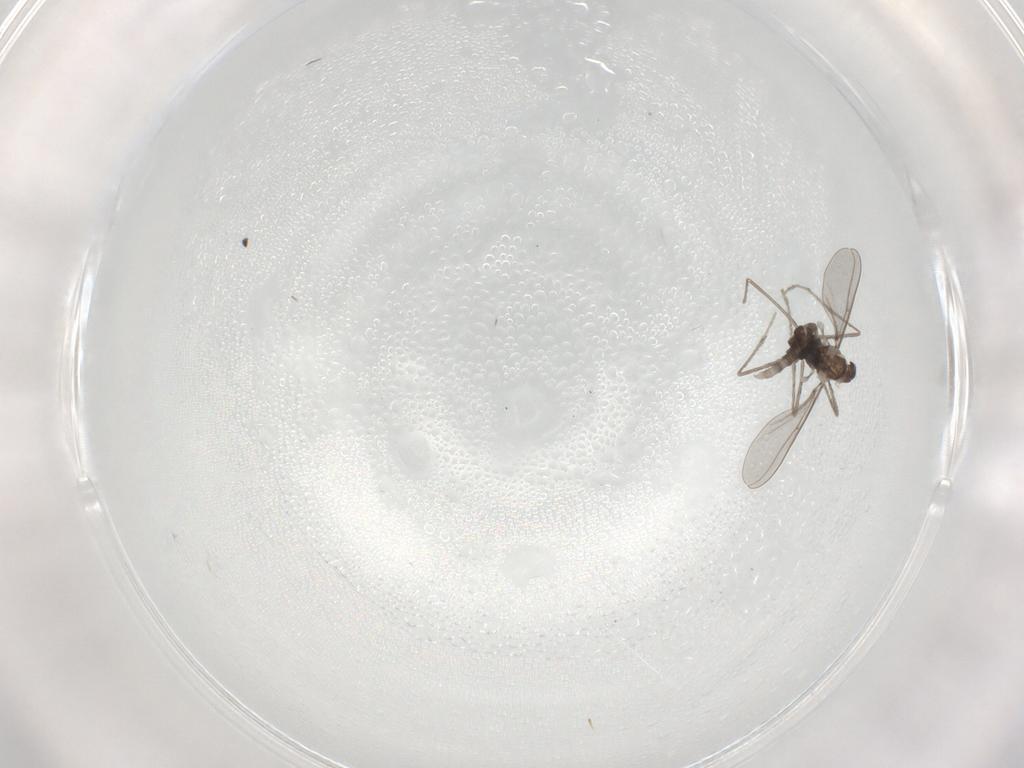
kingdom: Animalia
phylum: Arthropoda
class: Insecta
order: Diptera
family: Cecidomyiidae
